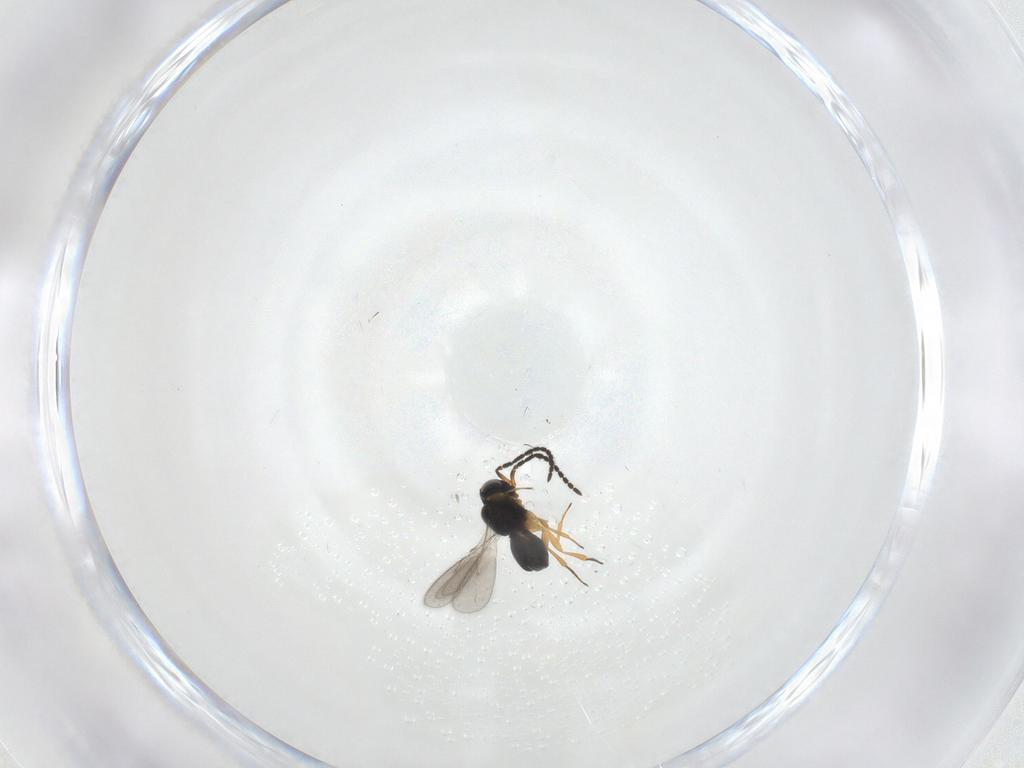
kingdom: Animalia
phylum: Arthropoda
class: Insecta
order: Hymenoptera
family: Scelionidae
